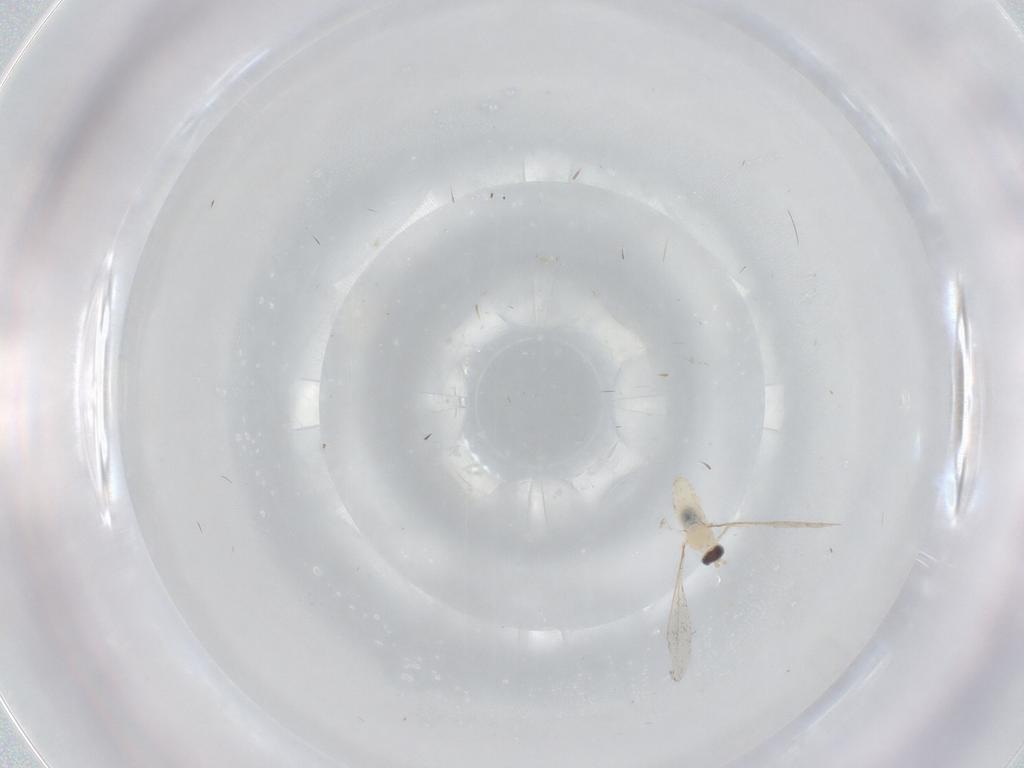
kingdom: Animalia
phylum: Arthropoda
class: Insecta
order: Diptera
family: Cecidomyiidae
